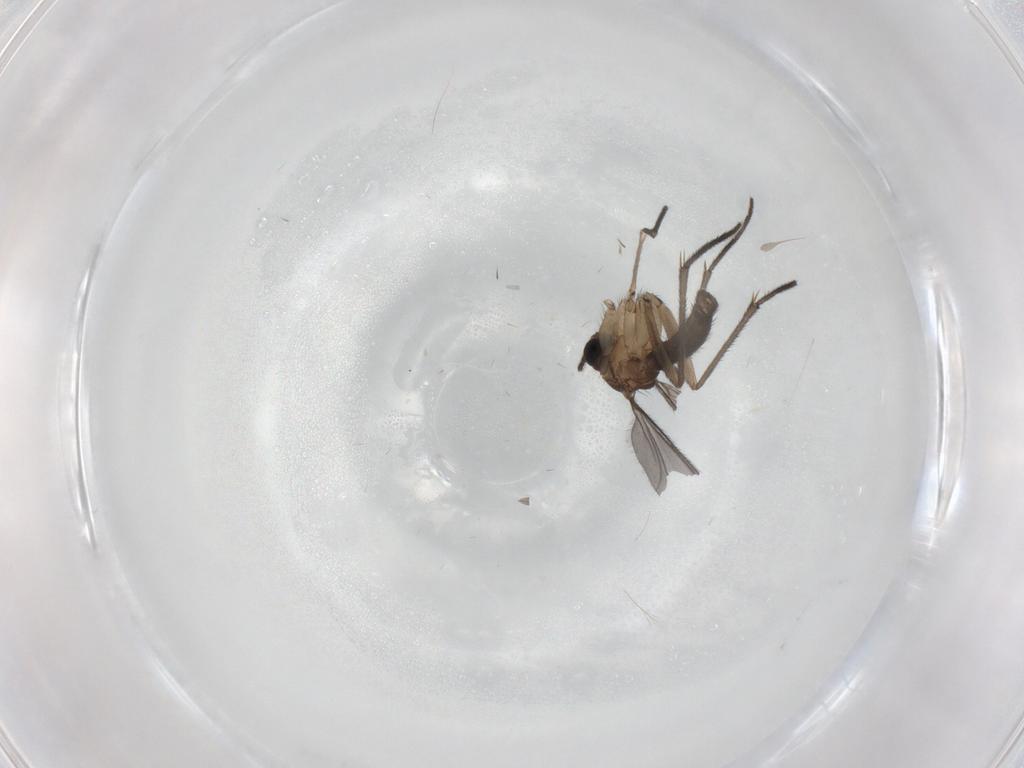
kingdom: Animalia
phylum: Arthropoda
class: Insecta
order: Diptera
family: Sciaridae
